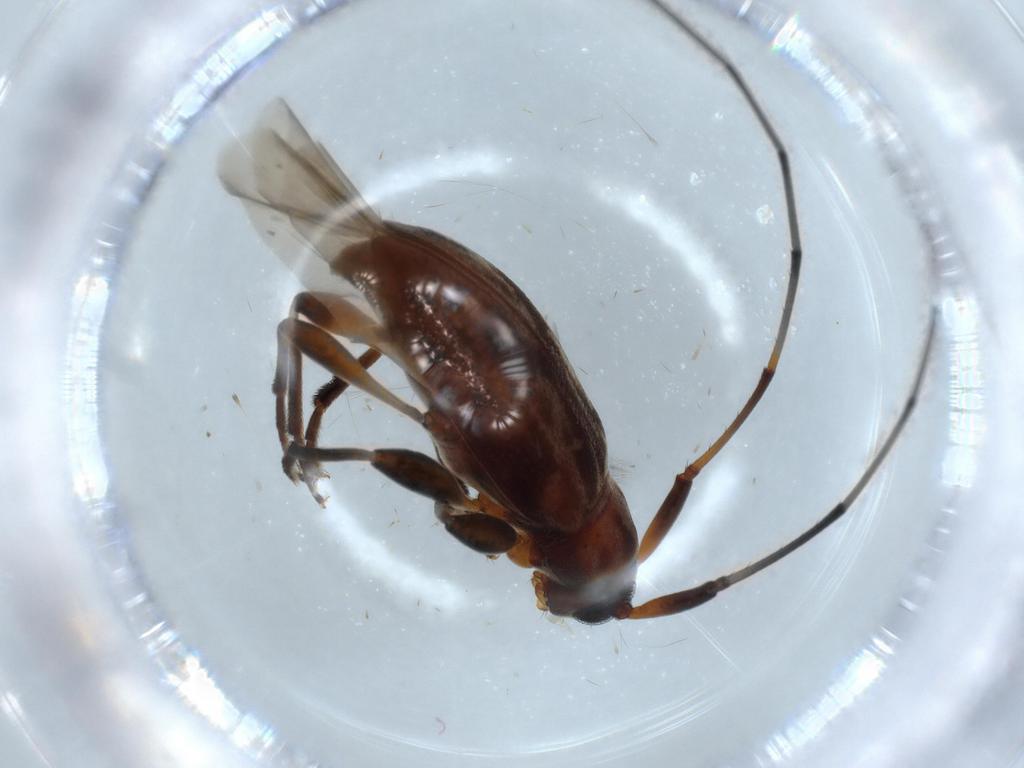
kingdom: Animalia
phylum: Arthropoda
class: Insecta
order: Coleoptera
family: Cerambycidae
